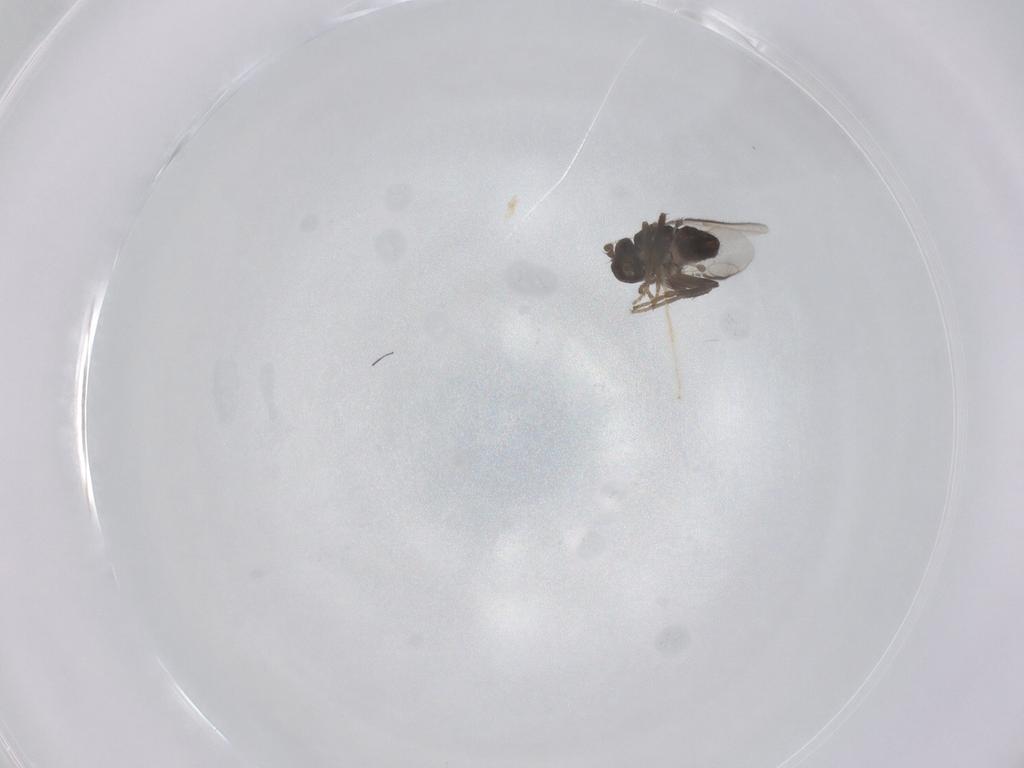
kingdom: Animalia
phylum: Arthropoda
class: Insecta
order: Diptera
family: Sphaeroceridae
